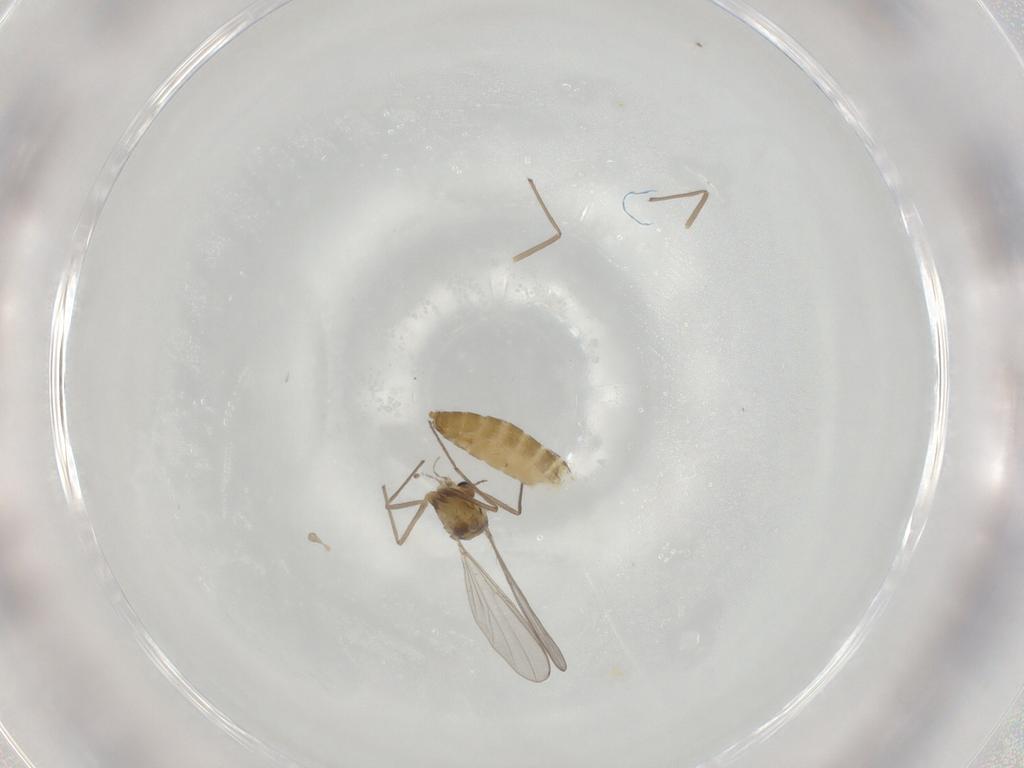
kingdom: Animalia
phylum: Arthropoda
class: Insecta
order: Diptera
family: Chironomidae
